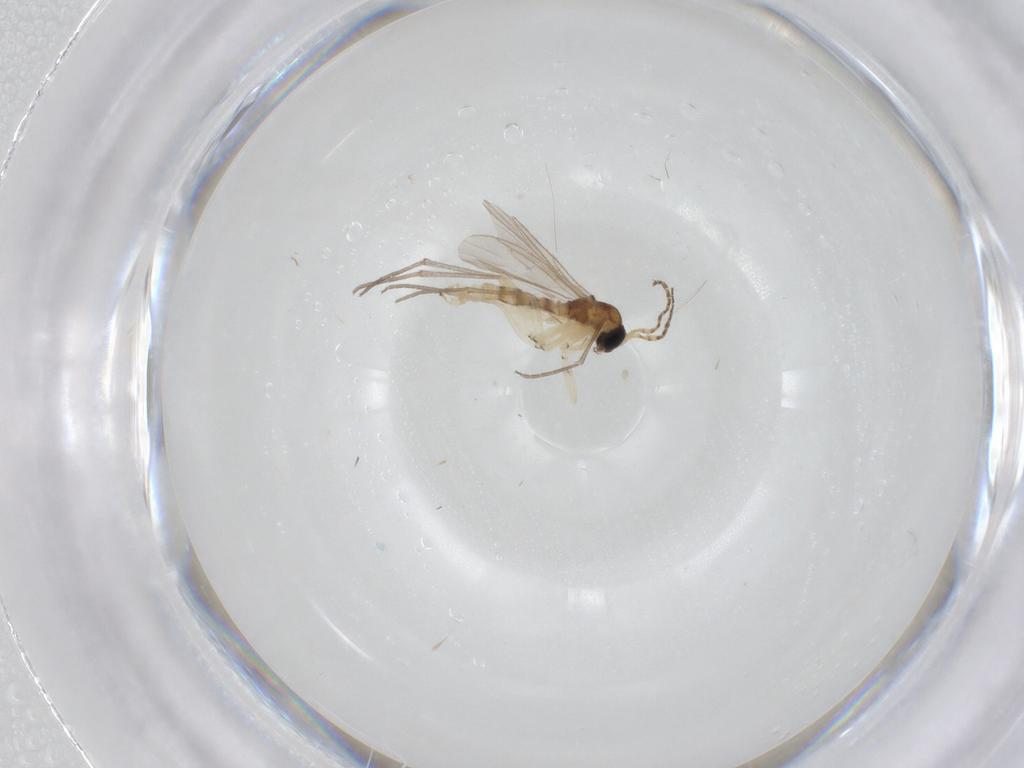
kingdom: Animalia
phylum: Arthropoda
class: Insecta
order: Diptera
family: Sciaridae
